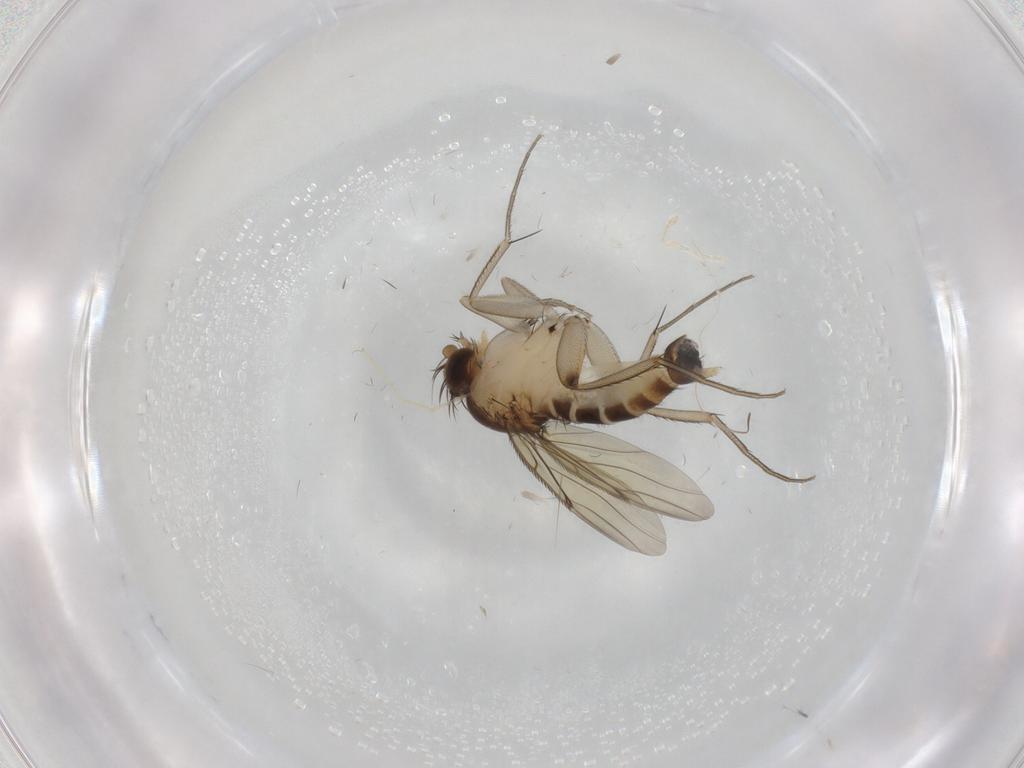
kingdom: Animalia
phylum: Arthropoda
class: Insecta
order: Diptera
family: Phoridae
